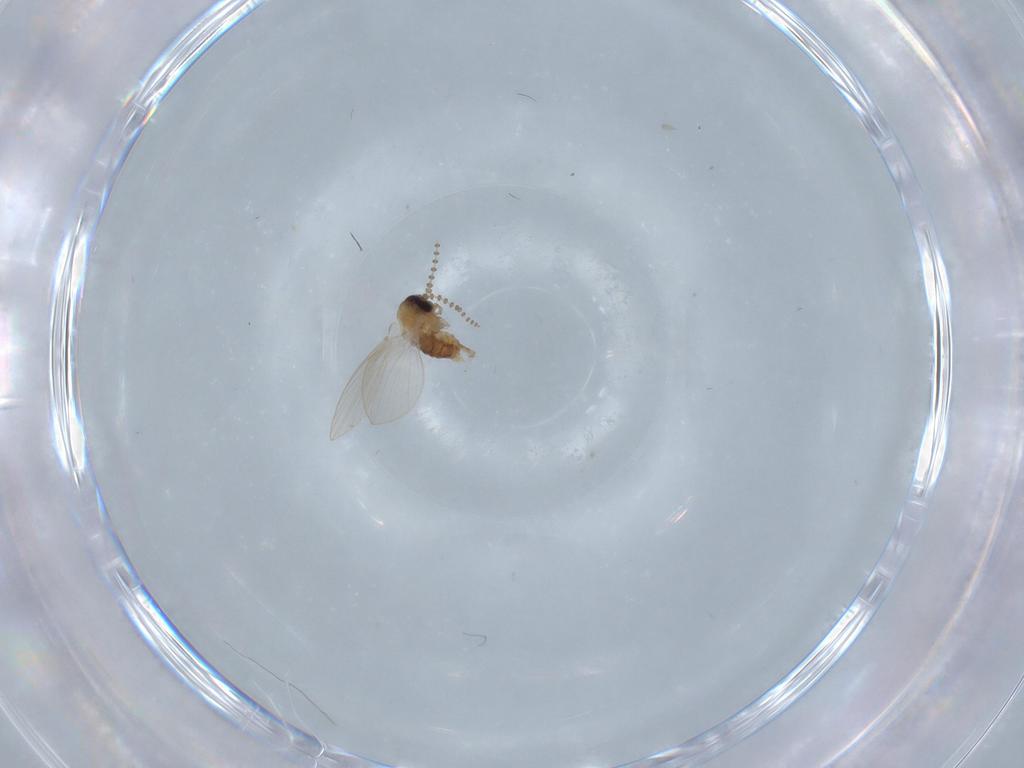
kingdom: Animalia
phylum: Arthropoda
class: Insecta
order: Diptera
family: Psychodidae
